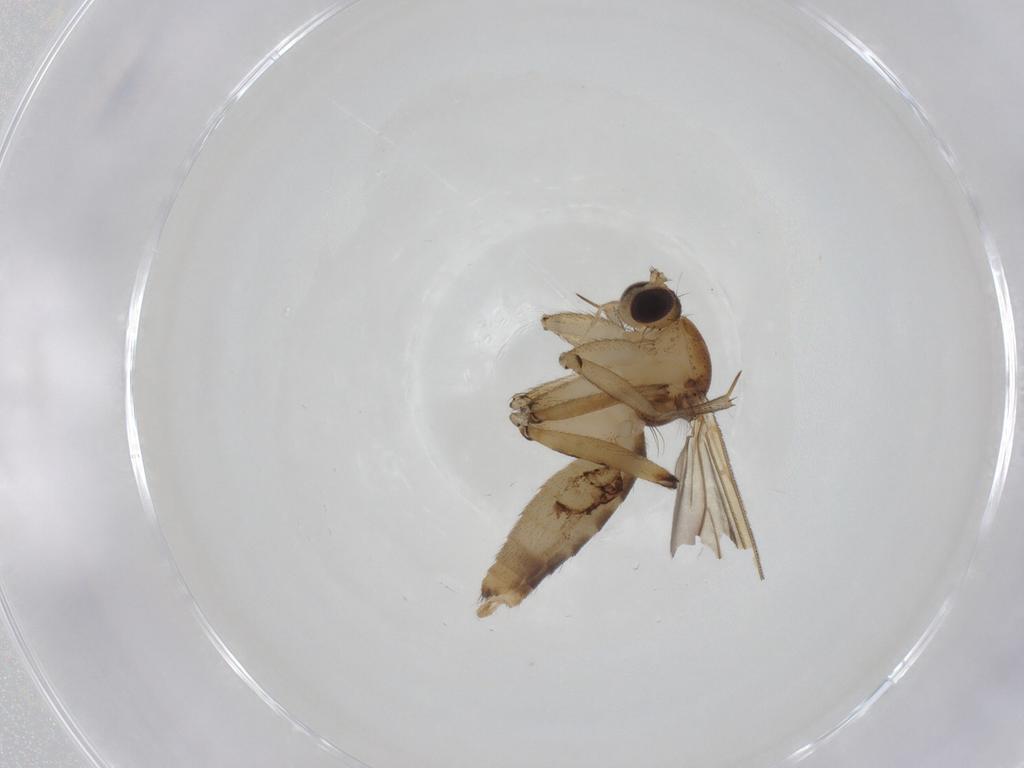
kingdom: Animalia
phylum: Arthropoda
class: Insecta
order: Diptera
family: Mycetophilidae
